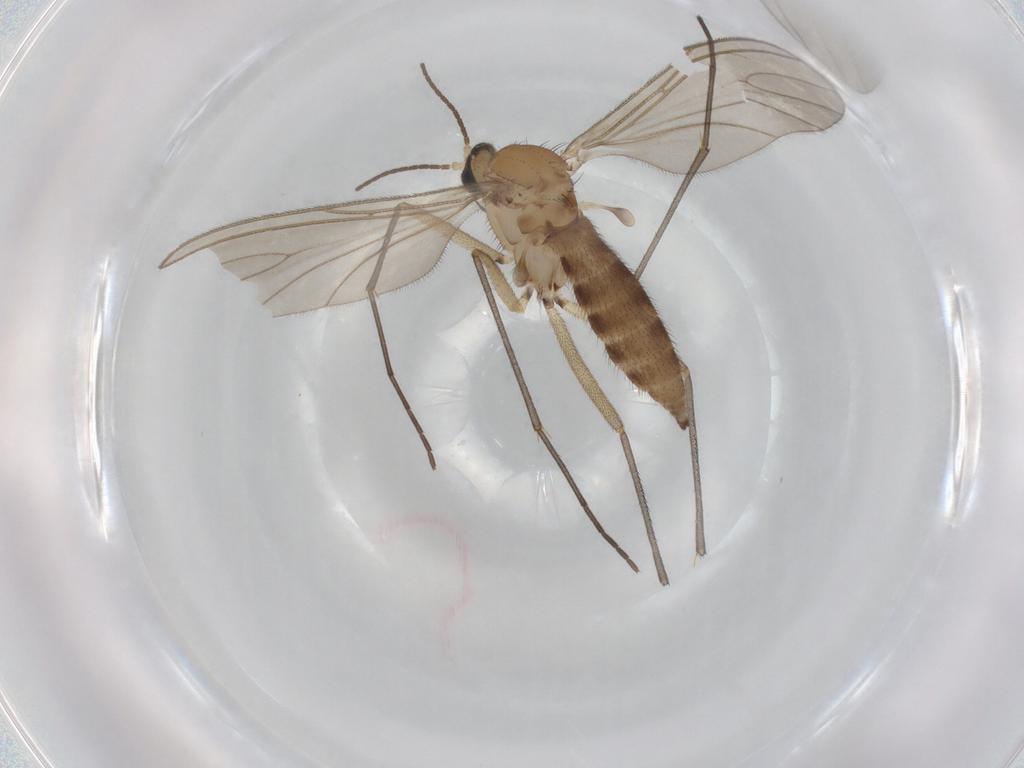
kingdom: Animalia
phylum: Arthropoda
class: Insecta
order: Diptera
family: Sciaridae
